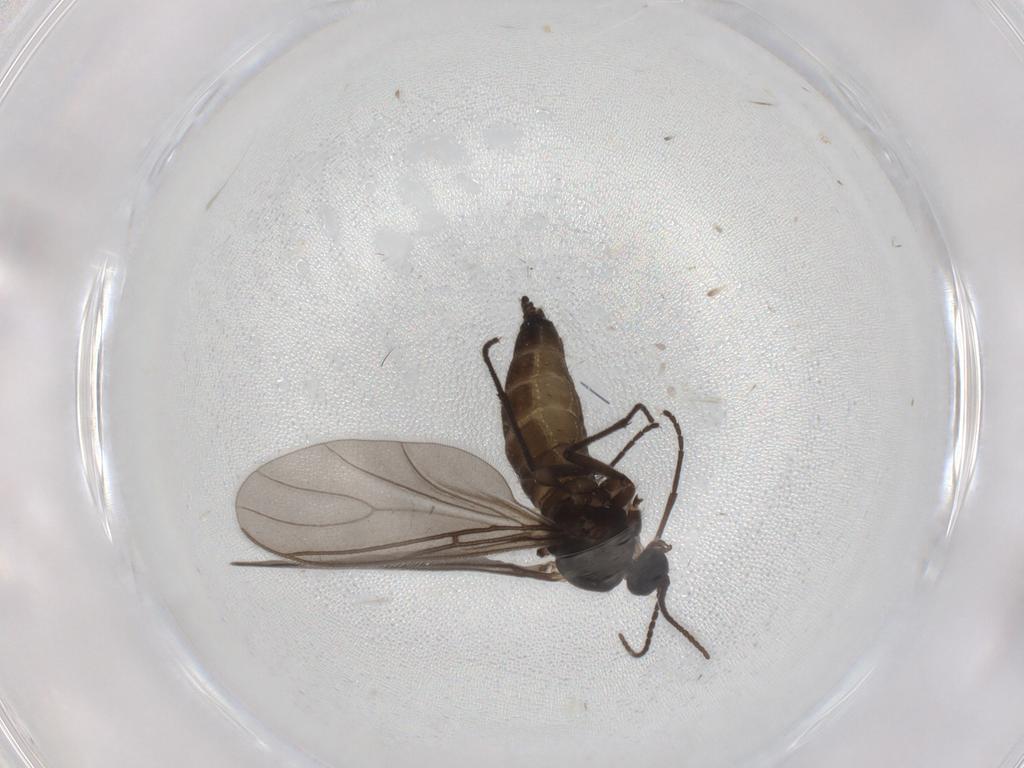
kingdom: Animalia
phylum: Arthropoda
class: Insecta
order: Diptera
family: Sciaridae
